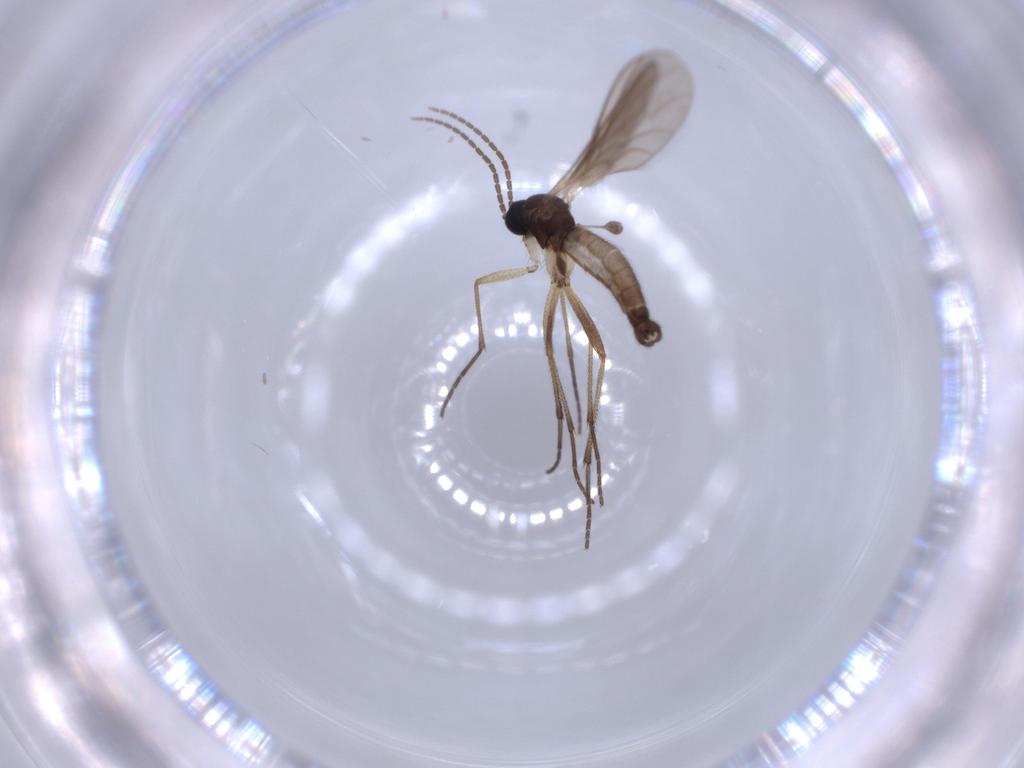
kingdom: Animalia
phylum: Arthropoda
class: Insecta
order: Diptera
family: Sciaridae
